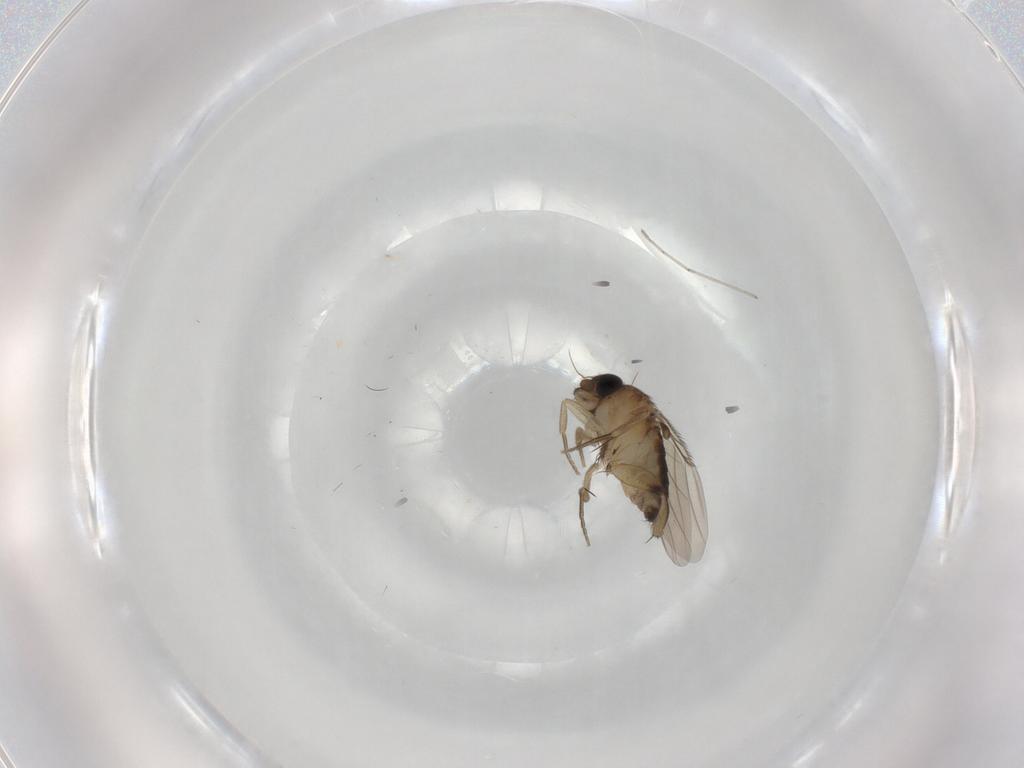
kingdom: Animalia
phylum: Arthropoda
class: Insecta
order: Diptera
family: Phoridae
